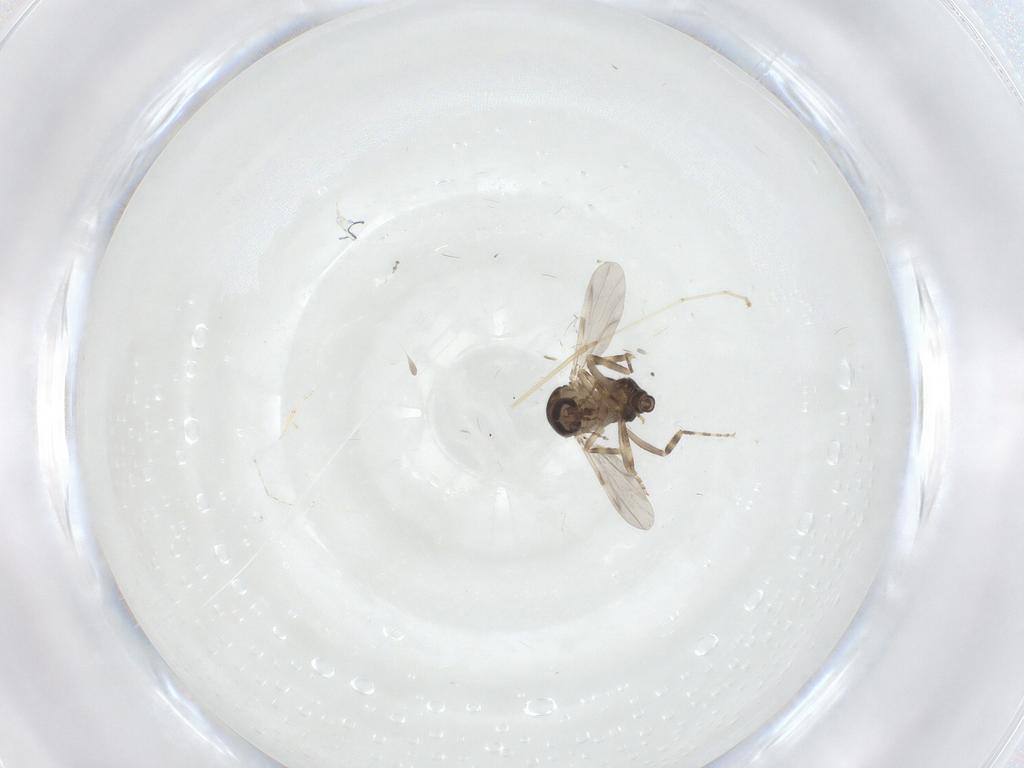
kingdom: Animalia
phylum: Arthropoda
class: Insecta
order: Diptera
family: Ceratopogonidae
